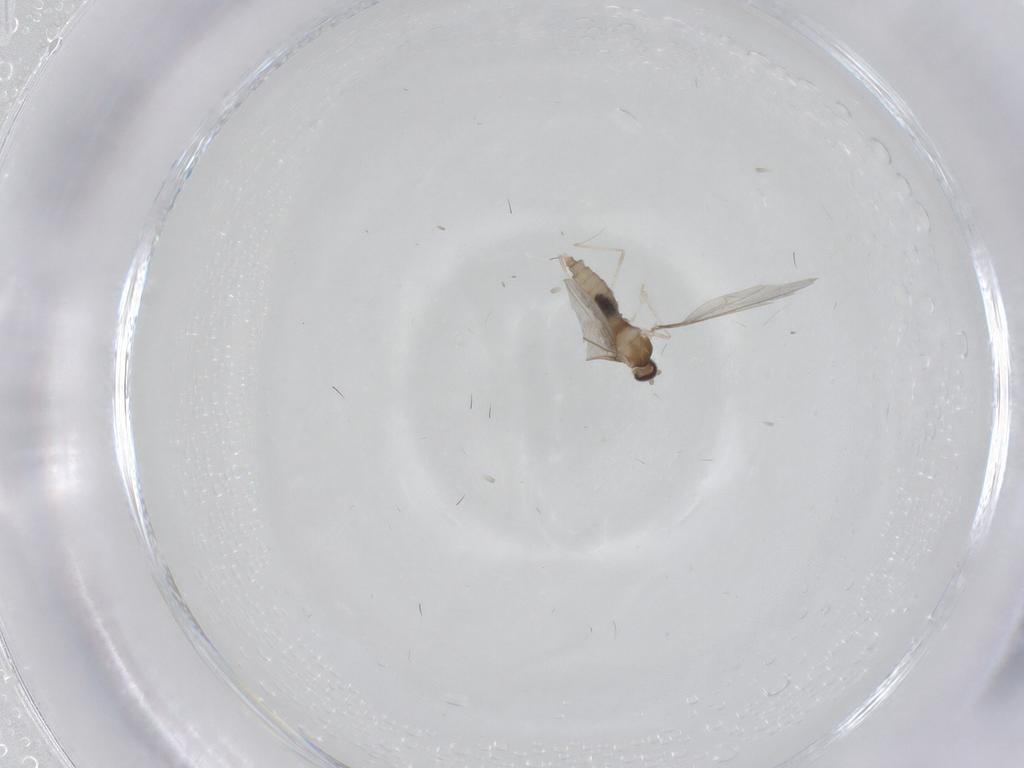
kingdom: Animalia
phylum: Arthropoda
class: Insecta
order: Diptera
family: Cecidomyiidae
